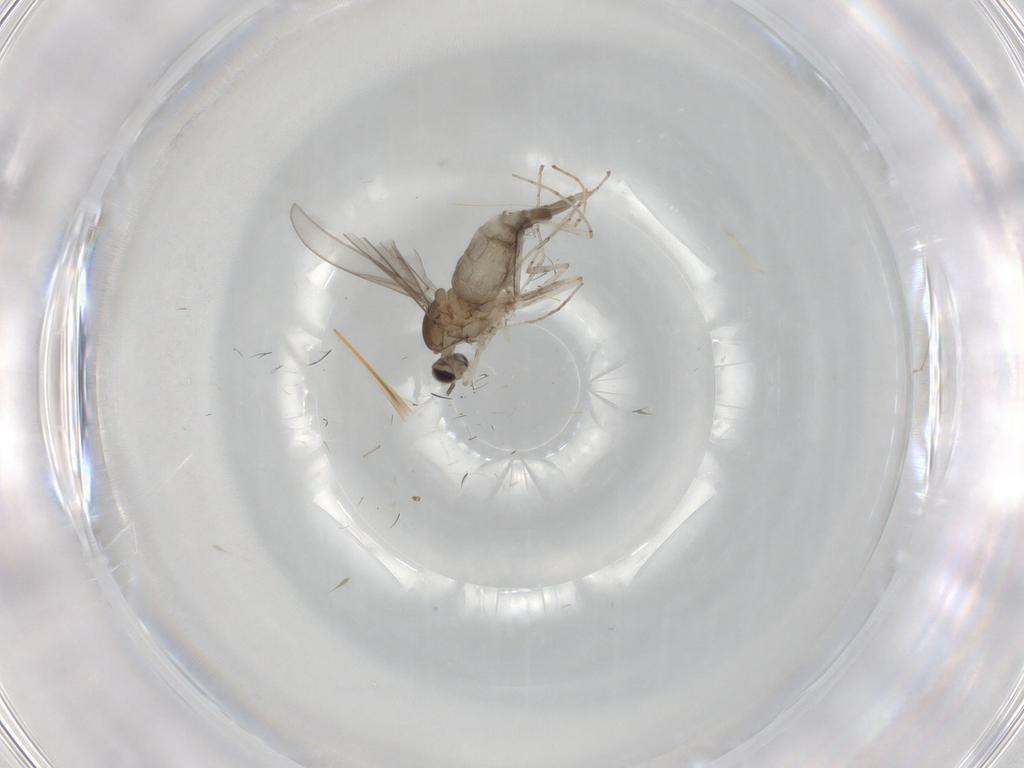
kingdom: Animalia
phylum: Arthropoda
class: Insecta
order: Diptera
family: Cecidomyiidae
